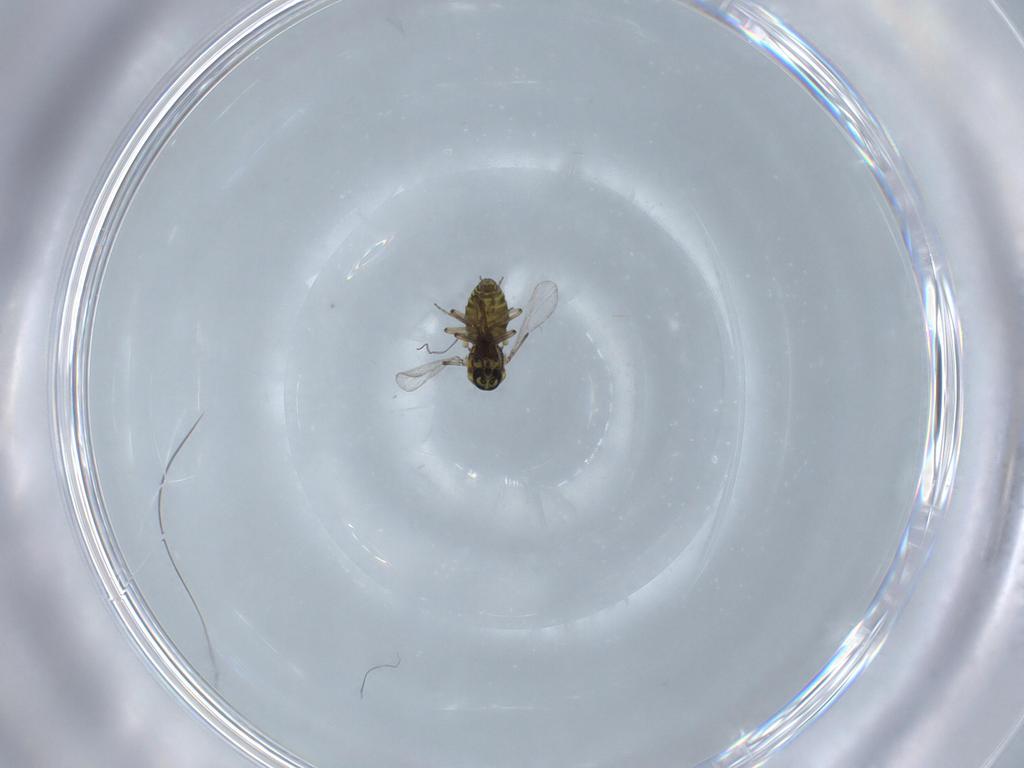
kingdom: Animalia
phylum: Arthropoda
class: Insecta
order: Diptera
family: Ceratopogonidae
